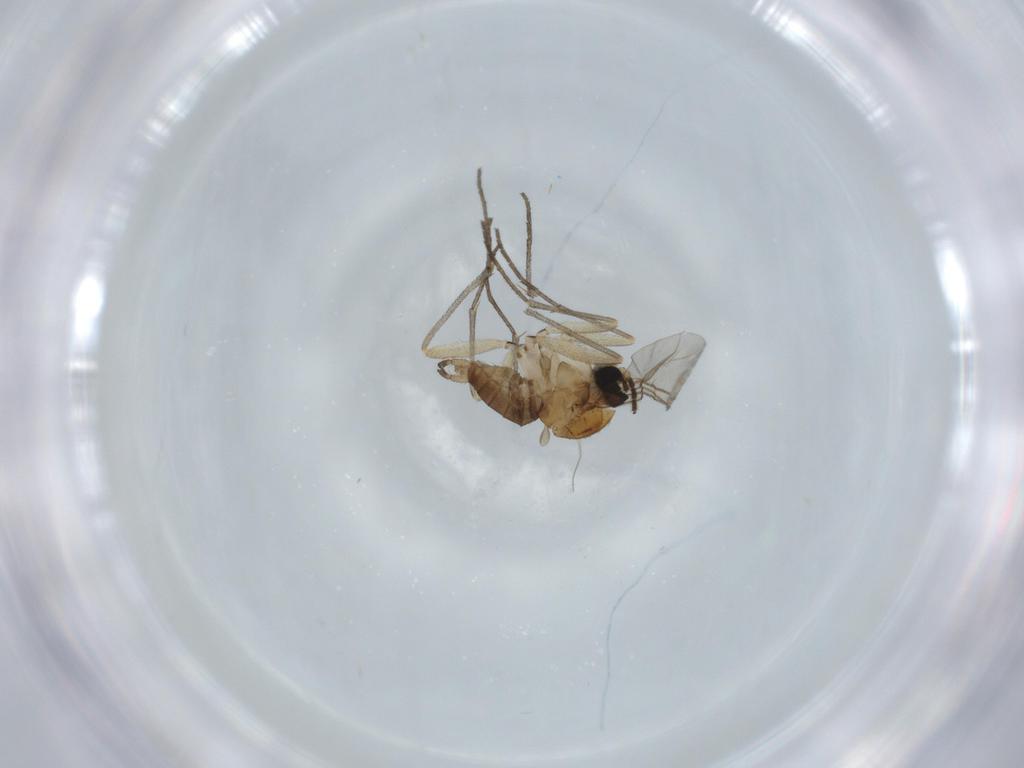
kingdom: Animalia
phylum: Arthropoda
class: Insecta
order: Diptera
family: Sciaridae
